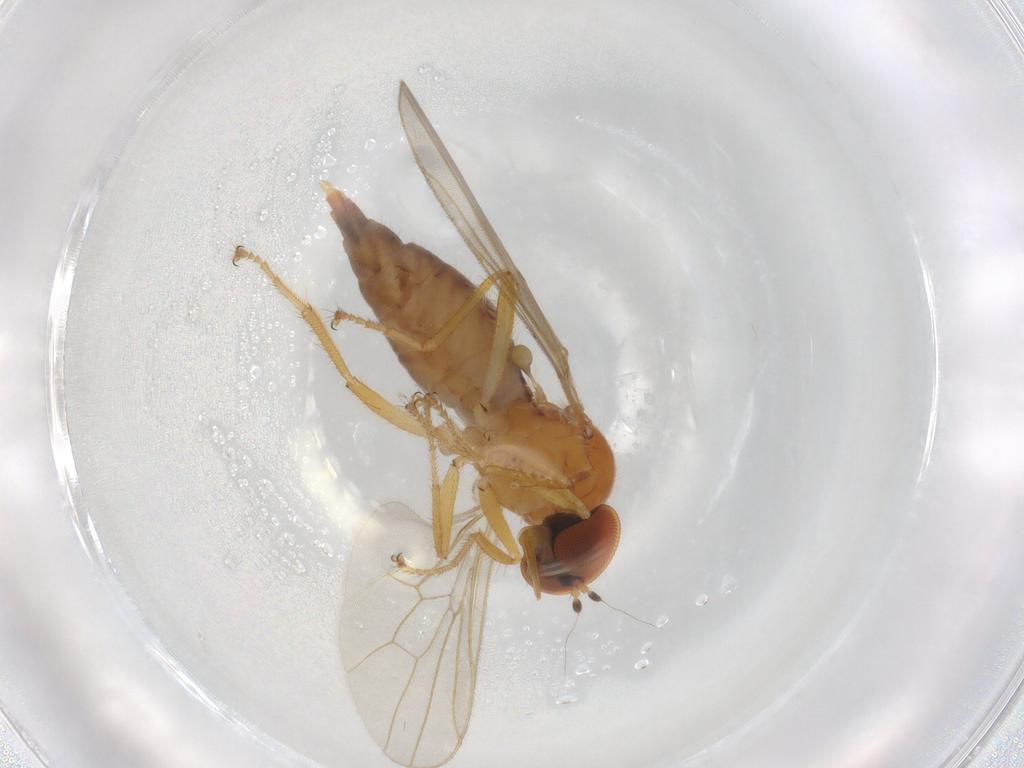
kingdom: Animalia
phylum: Arthropoda
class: Insecta
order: Diptera
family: Hybotidae
